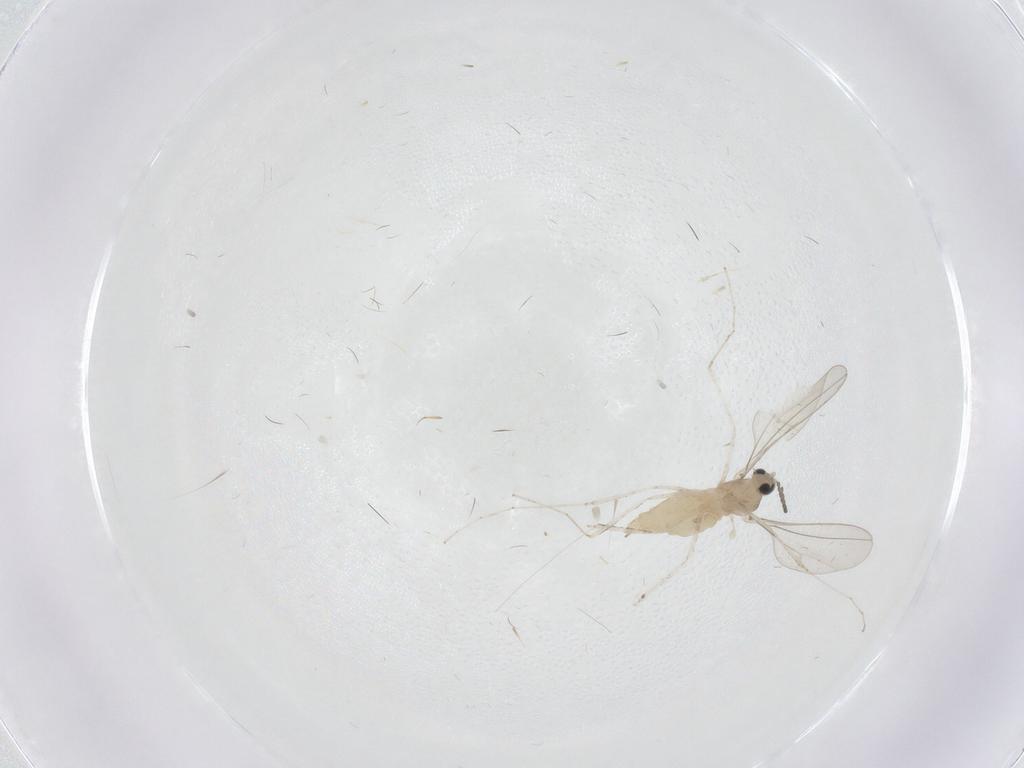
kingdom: Animalia
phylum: Arthropoda
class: Insecta
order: Diptera
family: Cecidomyiidae
